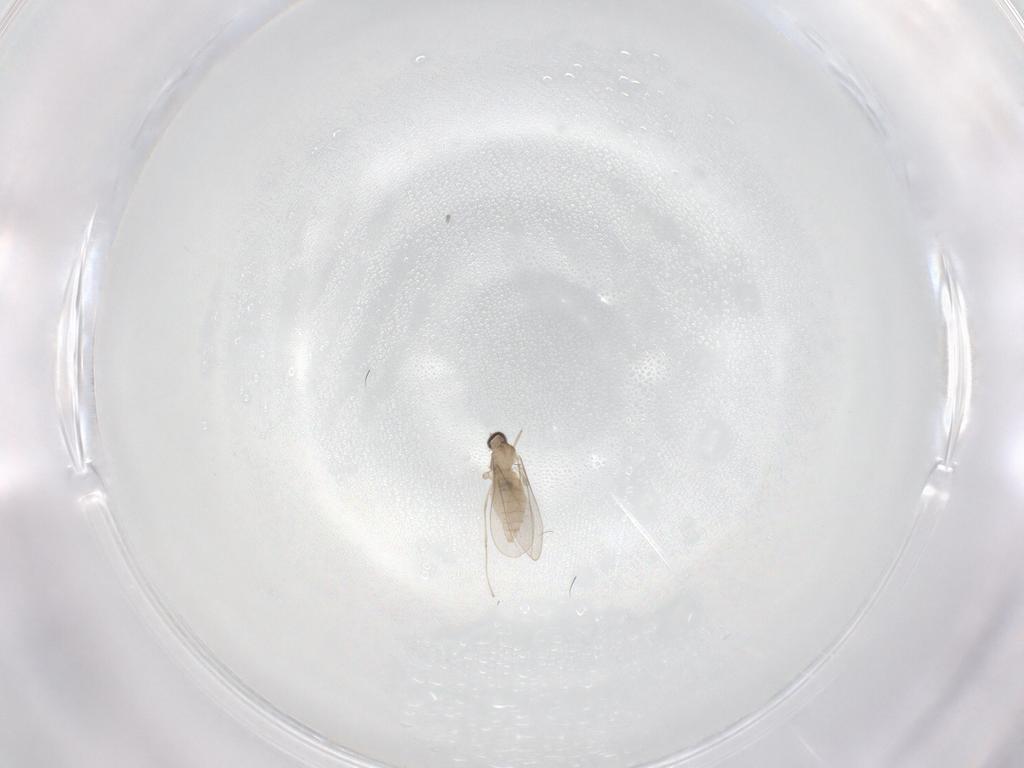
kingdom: Animalia
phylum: Arthropoda
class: Insecta
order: Diptera
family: Cecidomyiidae
